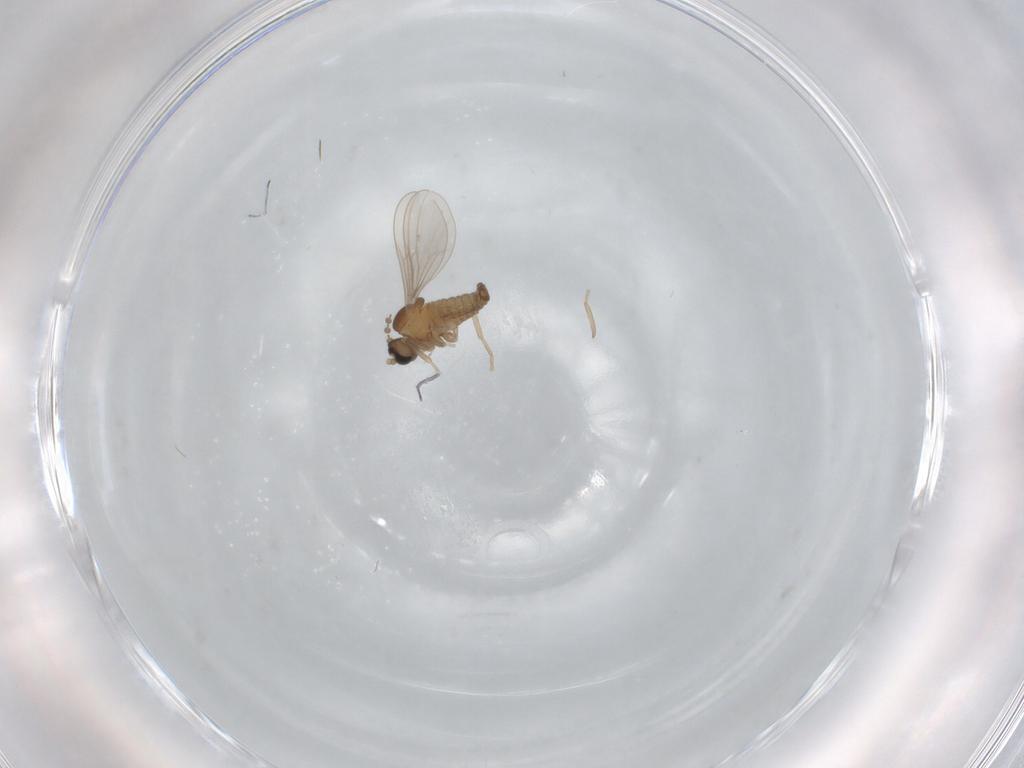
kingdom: Animalia
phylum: Arthropoda
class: Insecta
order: Diptera
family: Cecidomyiidae
